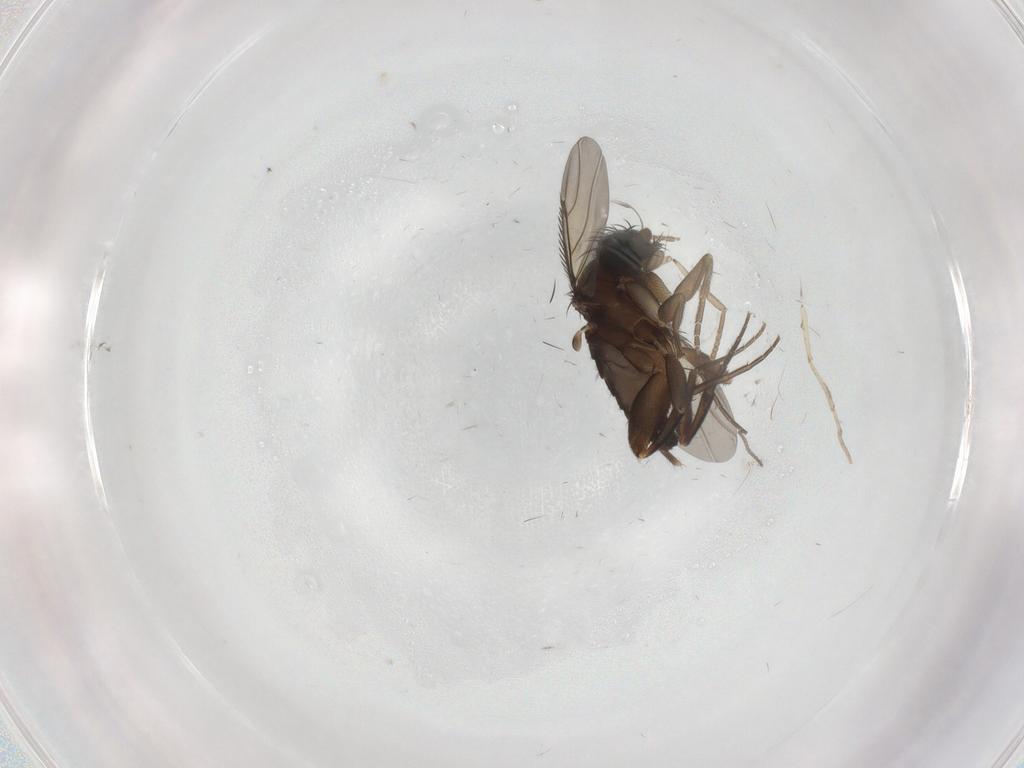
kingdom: Animalia
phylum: Arthropoda
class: Insecta
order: Diptera
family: Phoridae
